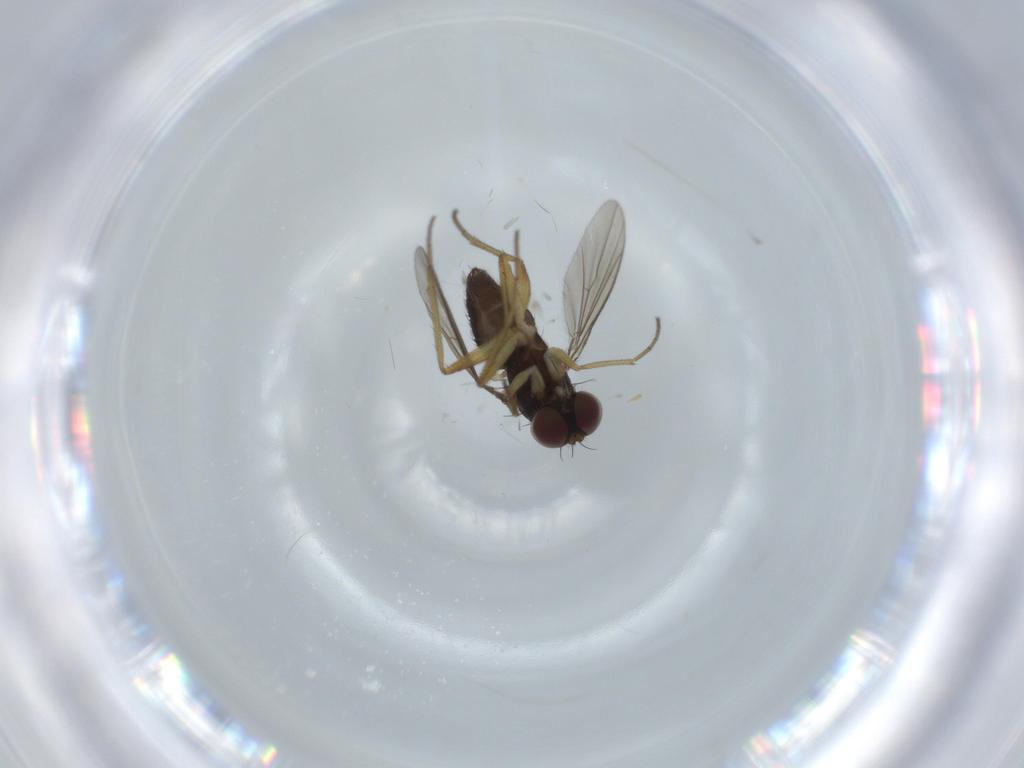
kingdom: Animalia
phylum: Arthropoda
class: Insecta
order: Diptera
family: Dolichopodidae
